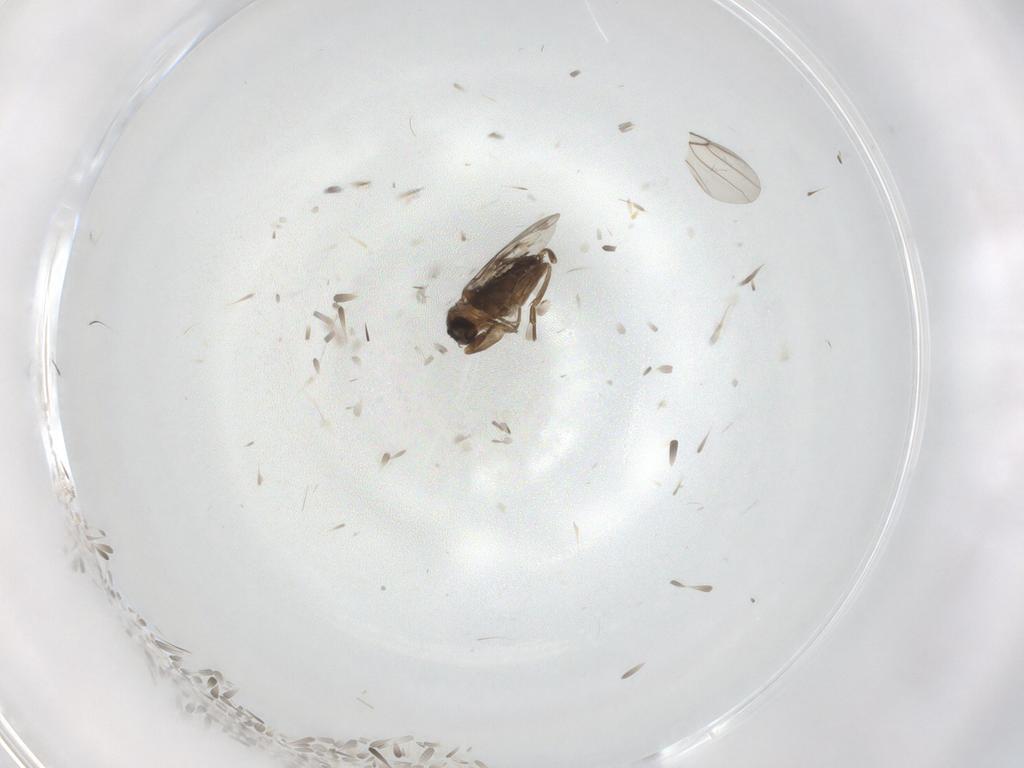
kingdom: Animalia
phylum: Arthropoda
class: Insecta
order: Diptera
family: Phoridae
